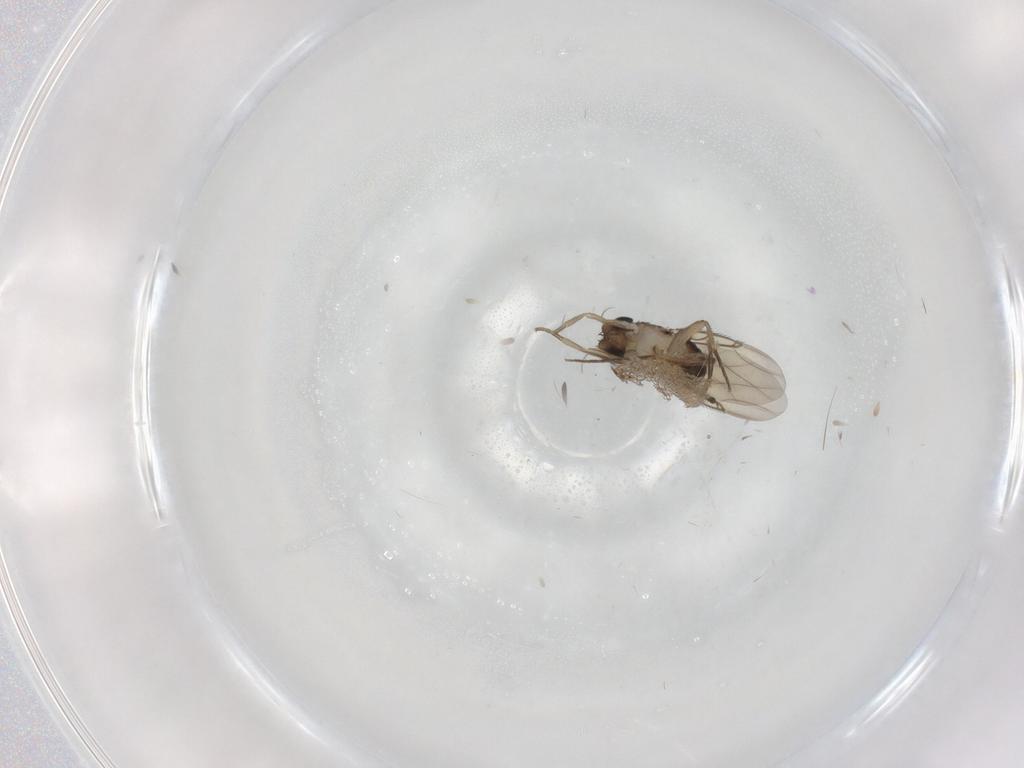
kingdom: Animalia
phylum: Arthropoda
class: Insecta
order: Diptera
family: Phoridae
